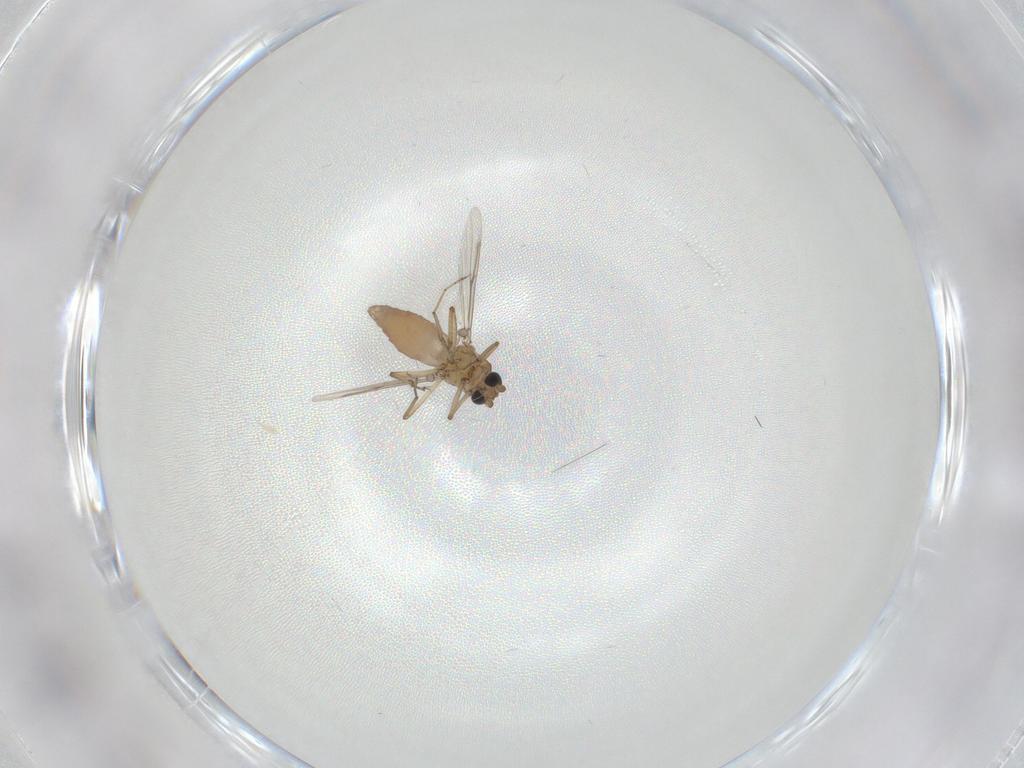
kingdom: Animalia
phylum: Arthropoda
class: Insecta
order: Diptera
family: Ceratopogonidae
